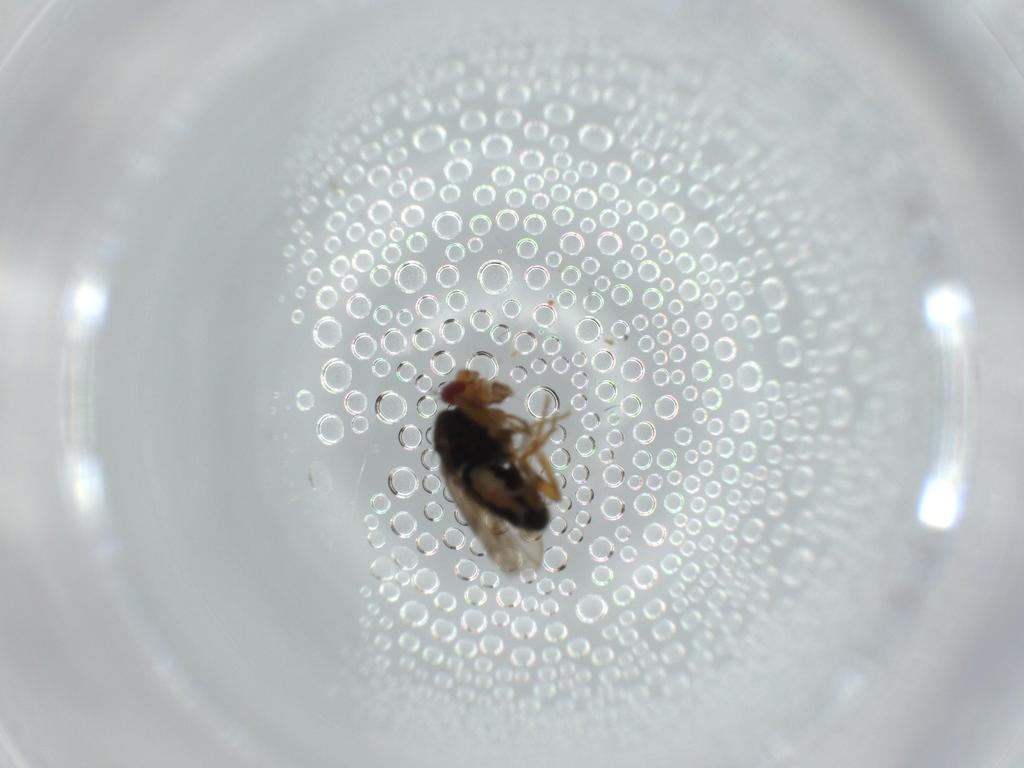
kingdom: Animalia
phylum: Arthropoda
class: Insecta
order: Diptera
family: Sphaeroceridae
